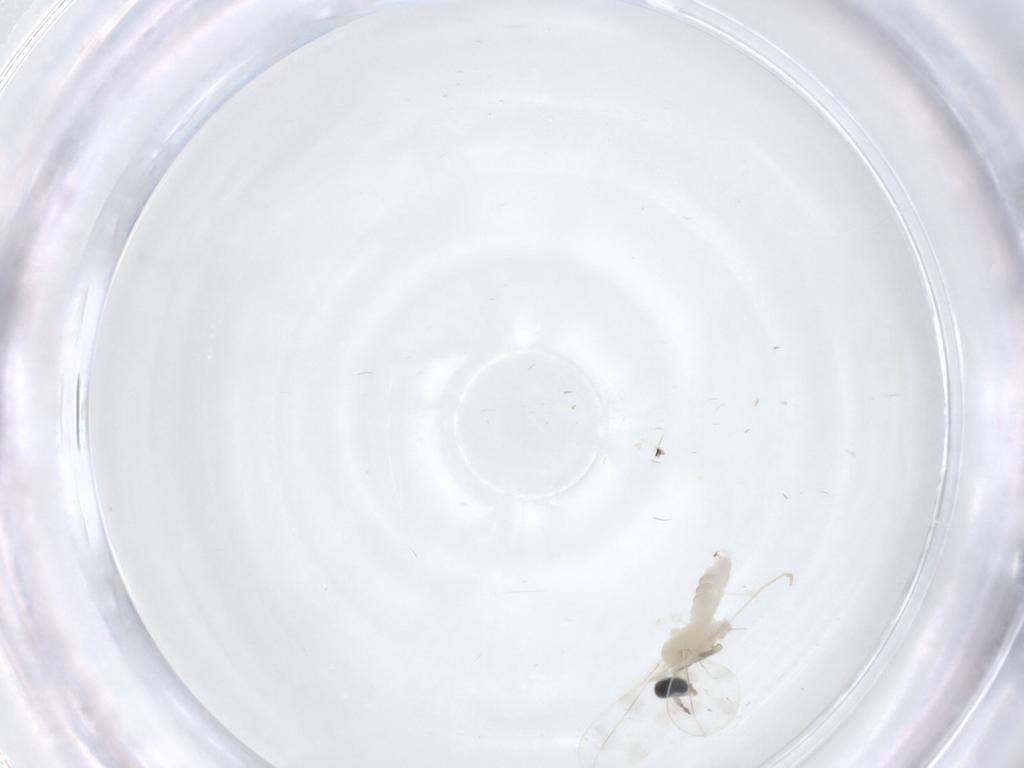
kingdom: Animalia
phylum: Arthropoda
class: Insecta
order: Diptera
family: Cecidomyiidae
